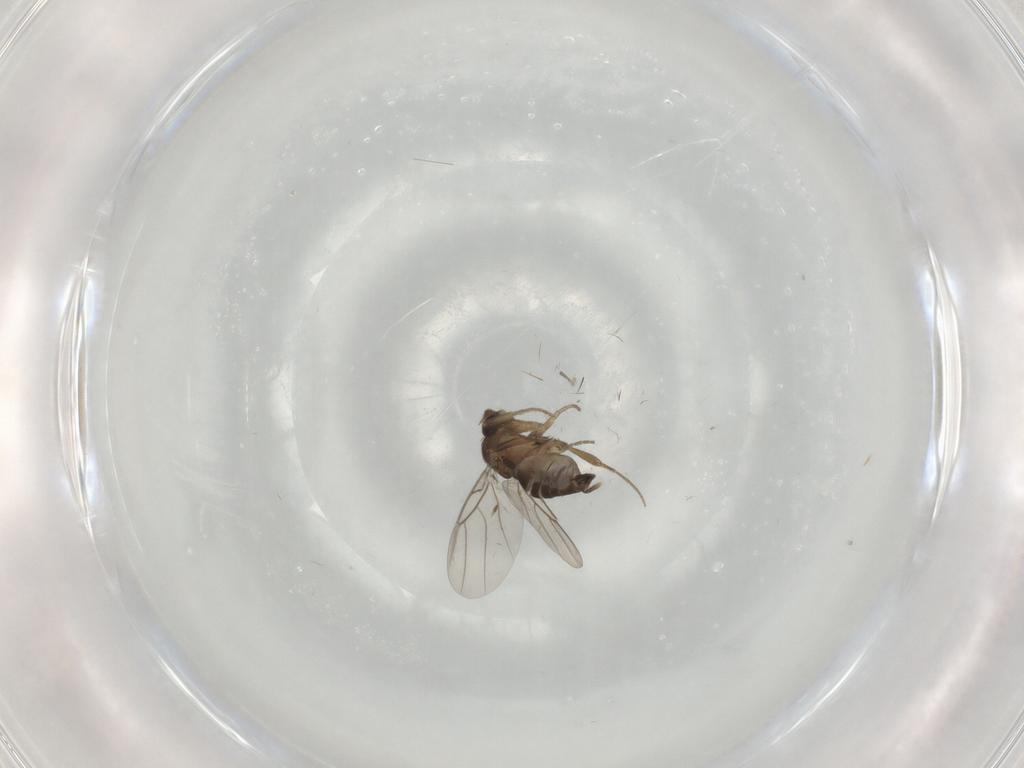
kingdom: Animalia
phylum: Arthropoda
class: Insecta
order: Diptera
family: Phoridae
